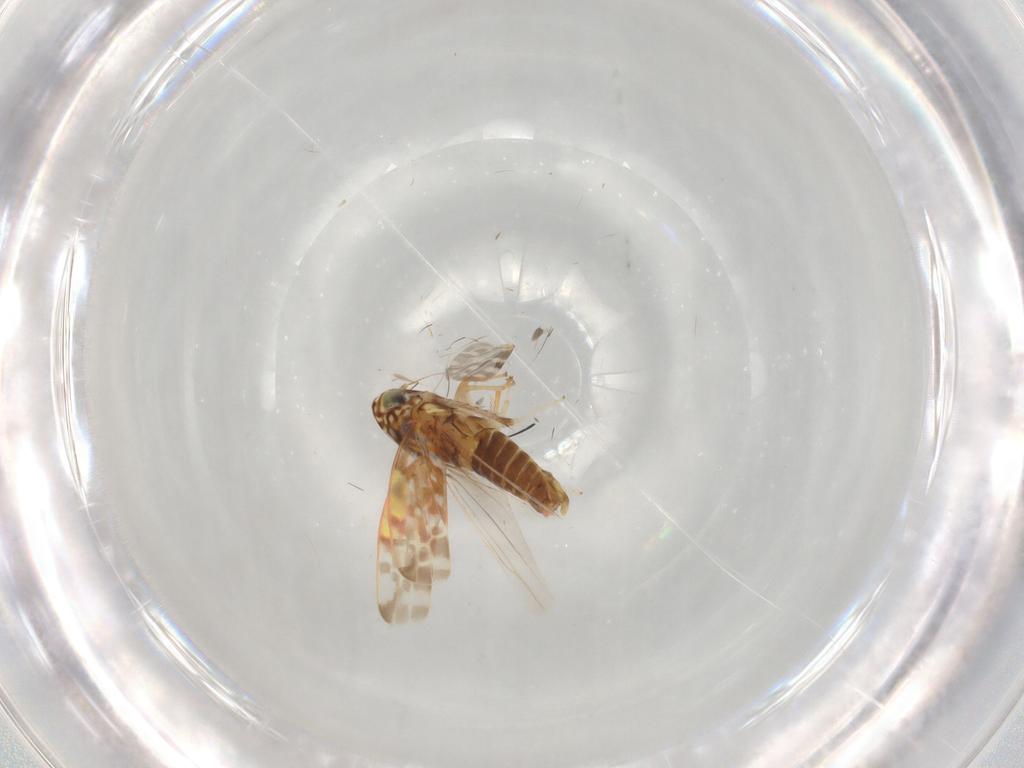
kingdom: Animalia
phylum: Arthropoda
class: Insecta
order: Hemiptera
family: Cicadellidae
